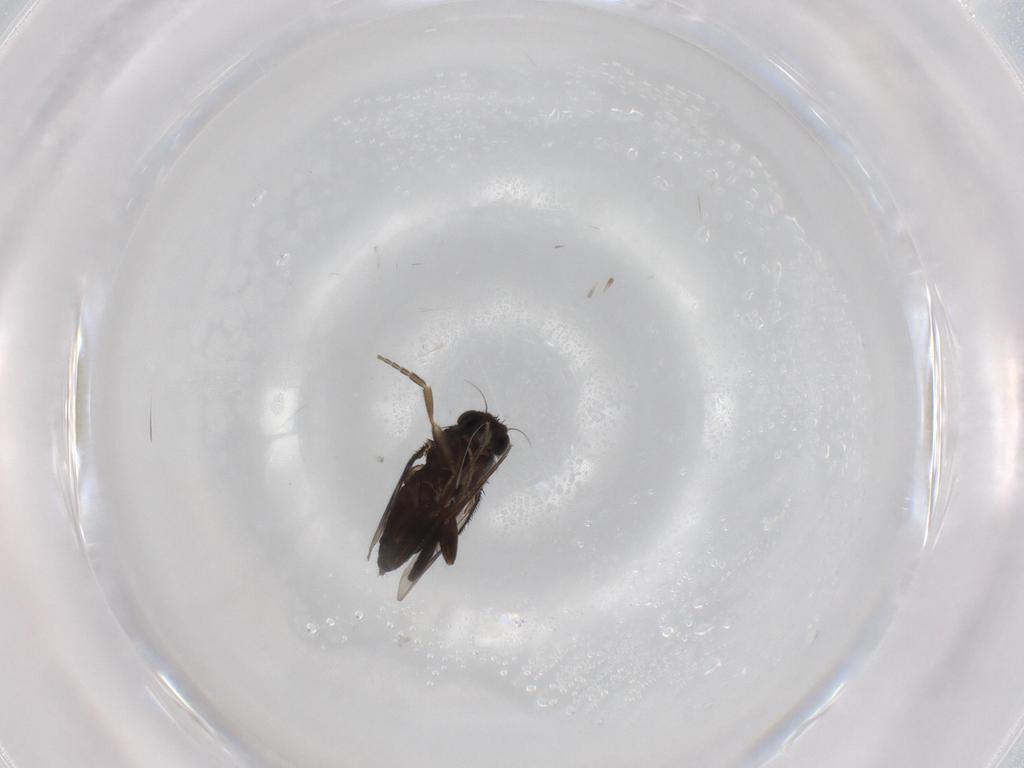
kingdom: Animalia
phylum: Arthropoda
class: Insecta
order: Diptera
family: Phoridae
